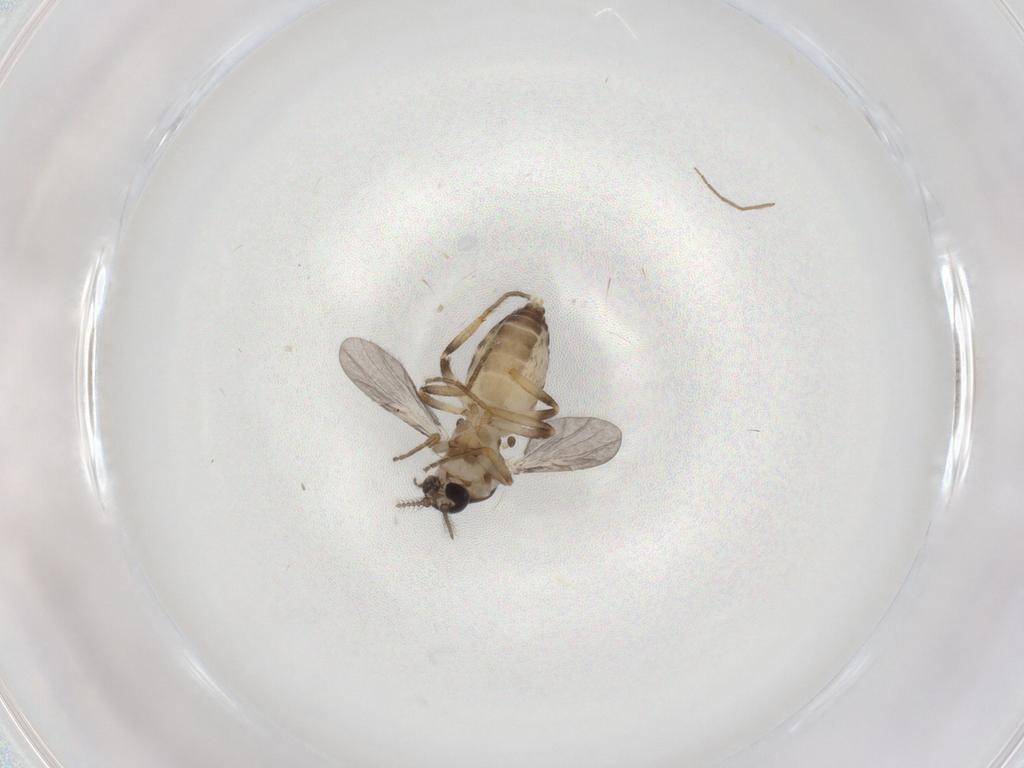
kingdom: Animalia
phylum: Arthropoda
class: Insecta
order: Diptera
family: Ceratopogonidae
